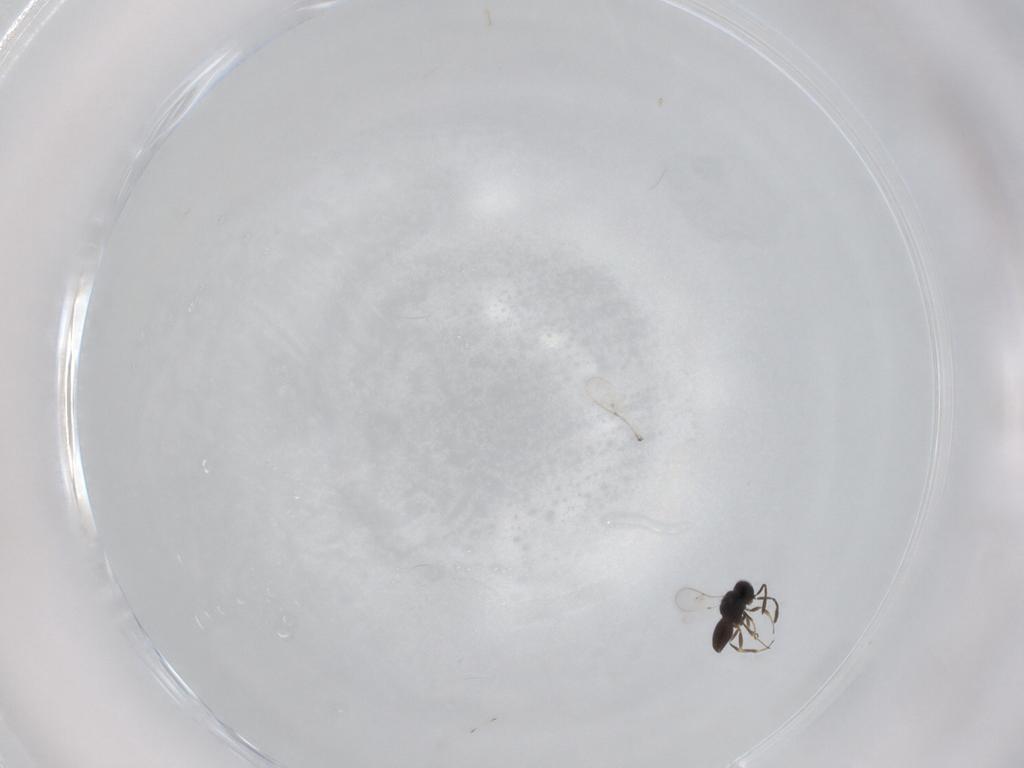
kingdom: Animalia
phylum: Arthropoda
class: Insecta
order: Hymenoptera
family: Scelionidae
